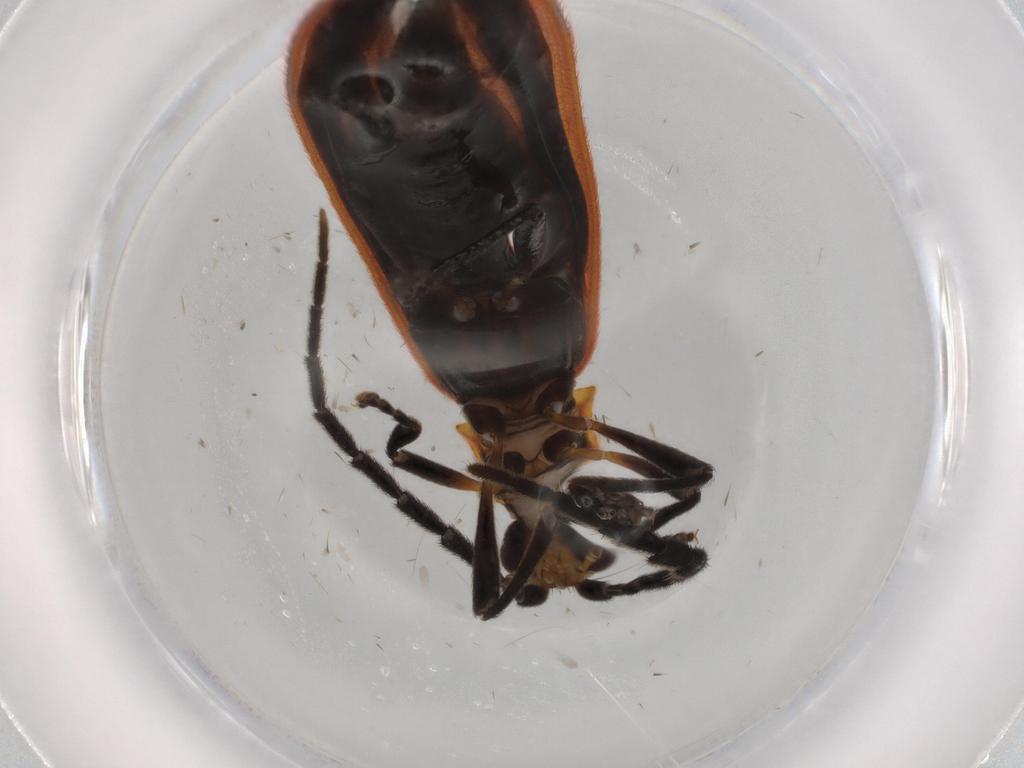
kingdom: Animalia
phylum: Arthropoda
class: Insecta
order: Coleoptera
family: Lycidae
